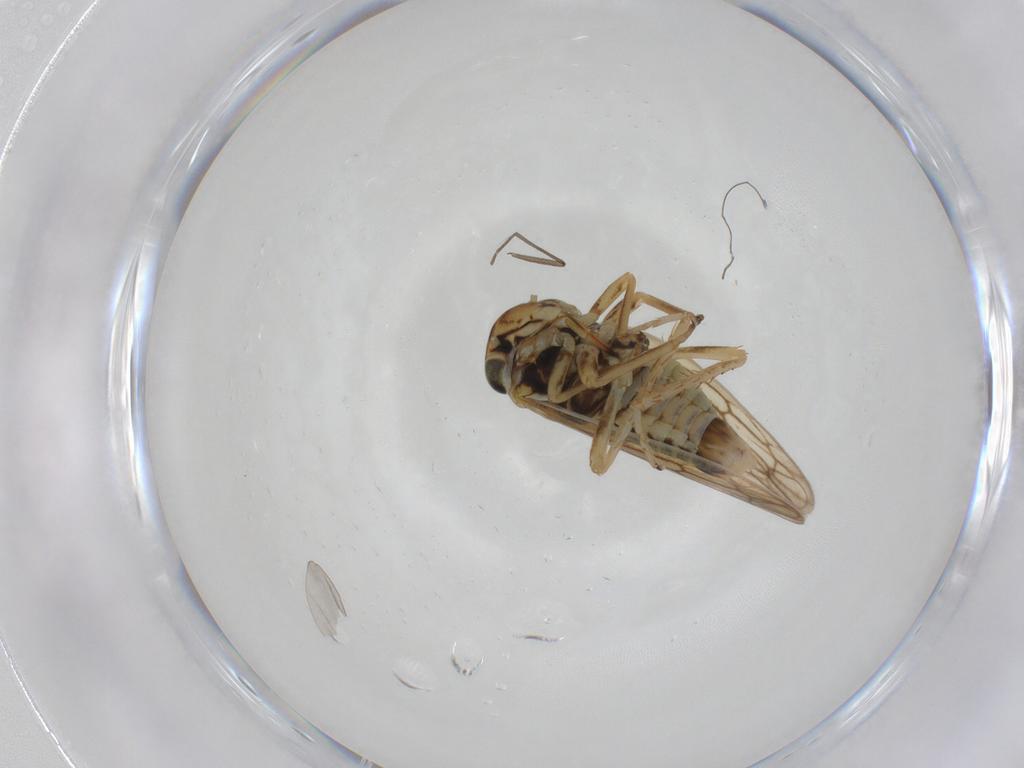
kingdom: Animalia
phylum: Arthropoda
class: Insecta
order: Hemiptera
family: Cicadellidae
